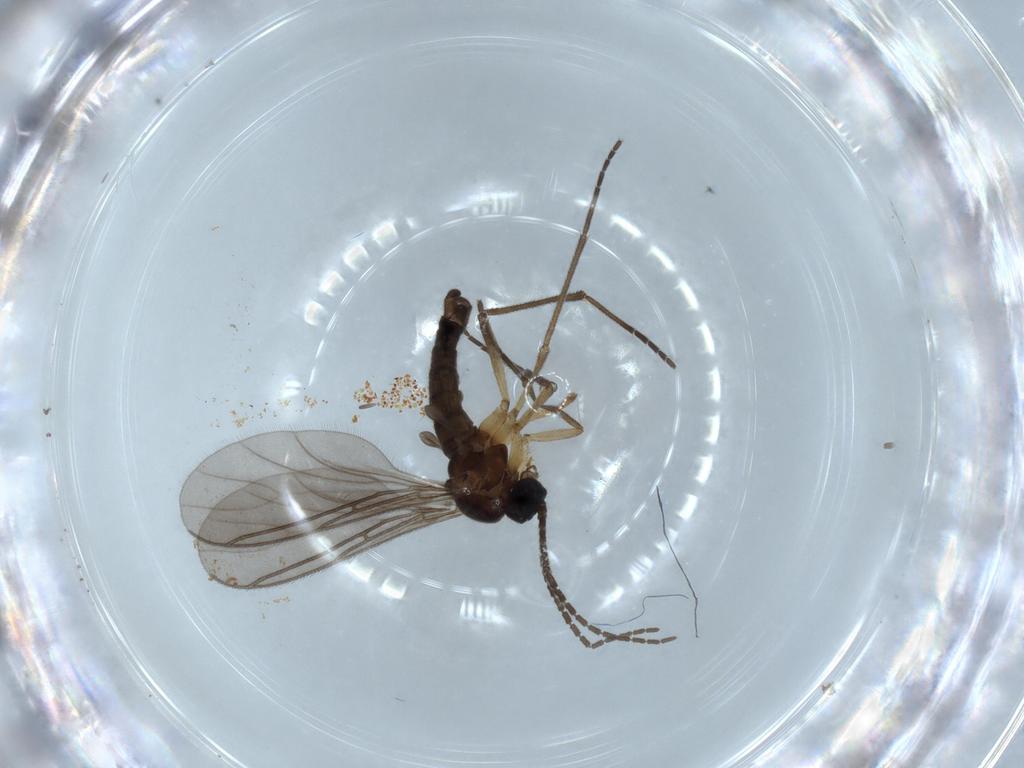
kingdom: Animalia
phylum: Arthropoda
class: Insecta
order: Diptera
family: Sciaridae
